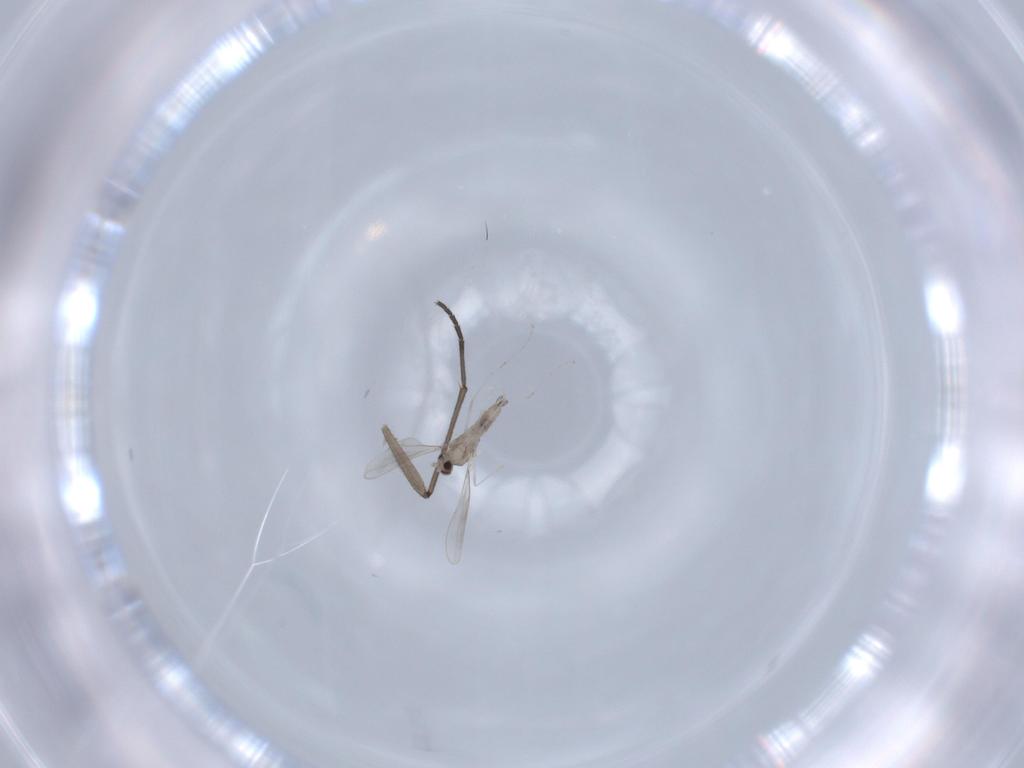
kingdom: Animalia
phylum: Arthropoda
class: Insecta
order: Diptera
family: Cecidomyiidae
